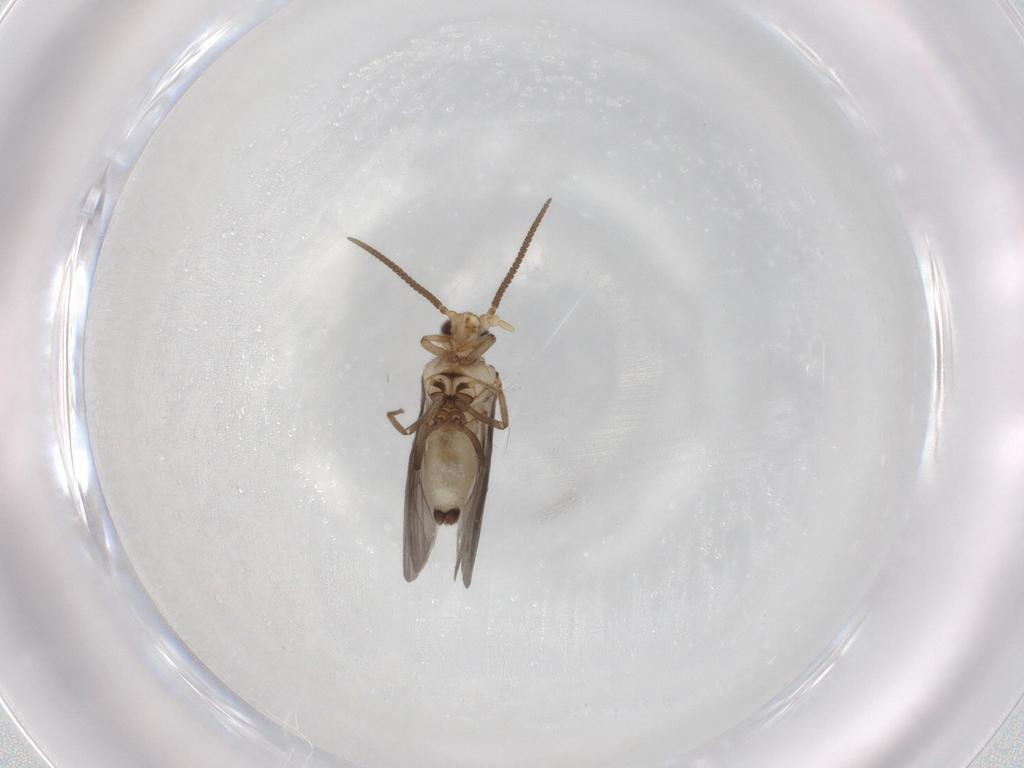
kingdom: Animalia
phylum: Arthropoda
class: Insecta
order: Neuroptera
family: Coniopterygidae
